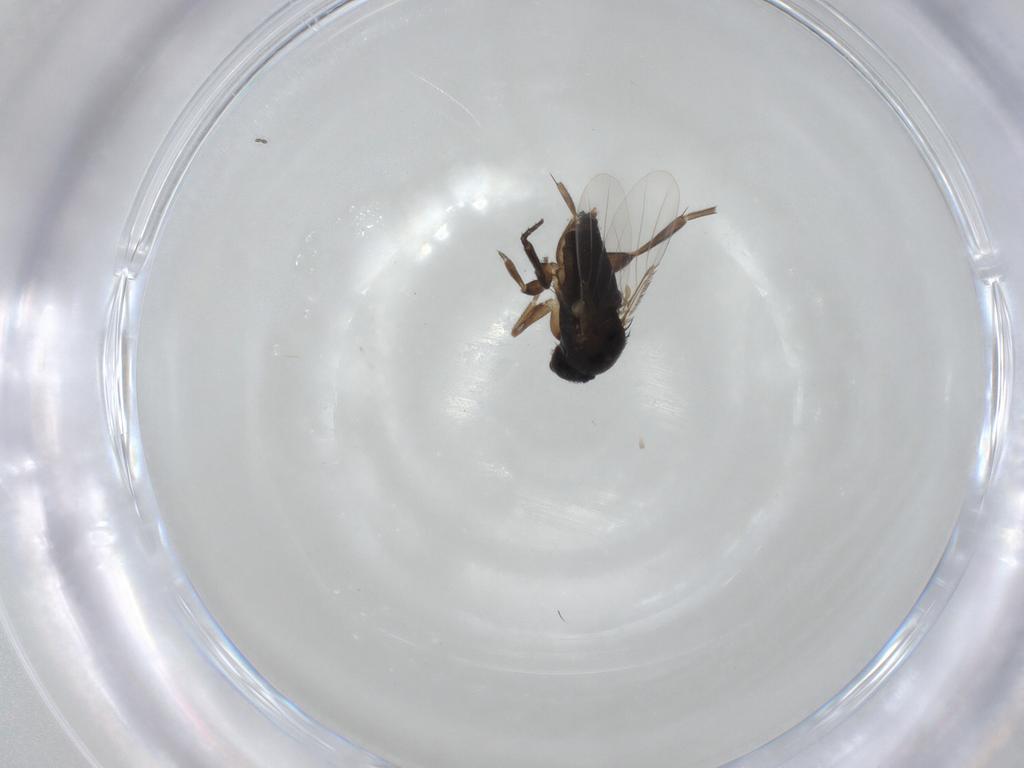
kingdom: Animalia
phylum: Arthropoda
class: Insecta
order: Diptera
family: Phoridae
